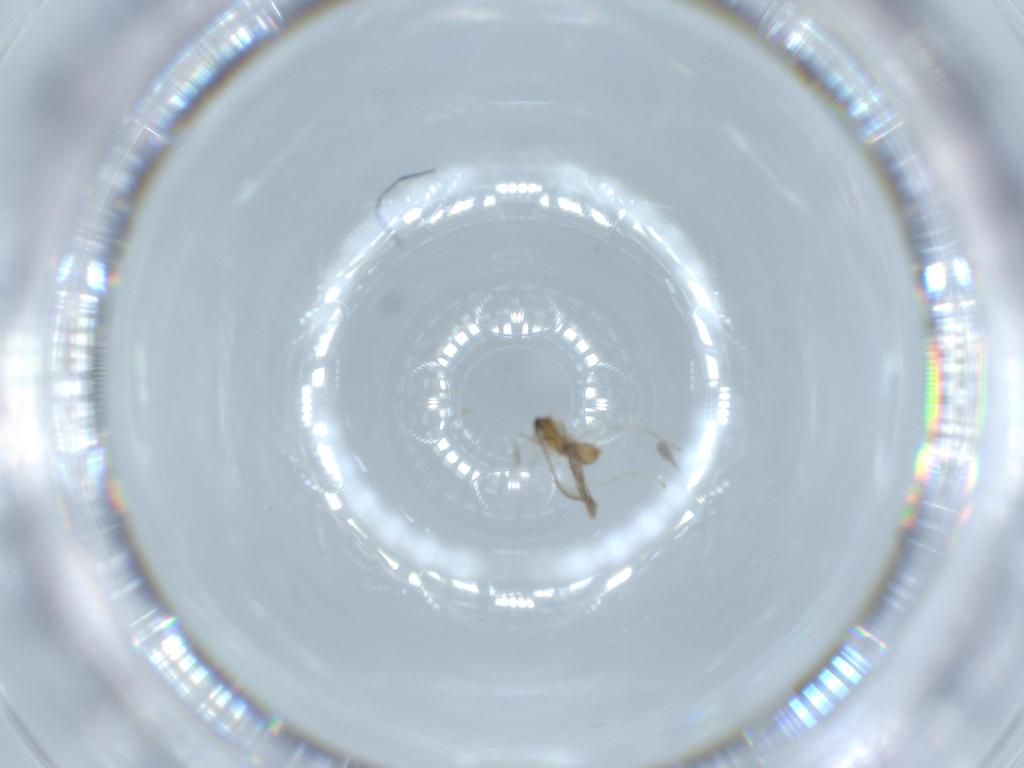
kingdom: Animalia
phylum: Arthropoda
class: Insecta
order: Diptera
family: Cecidomyiidae
